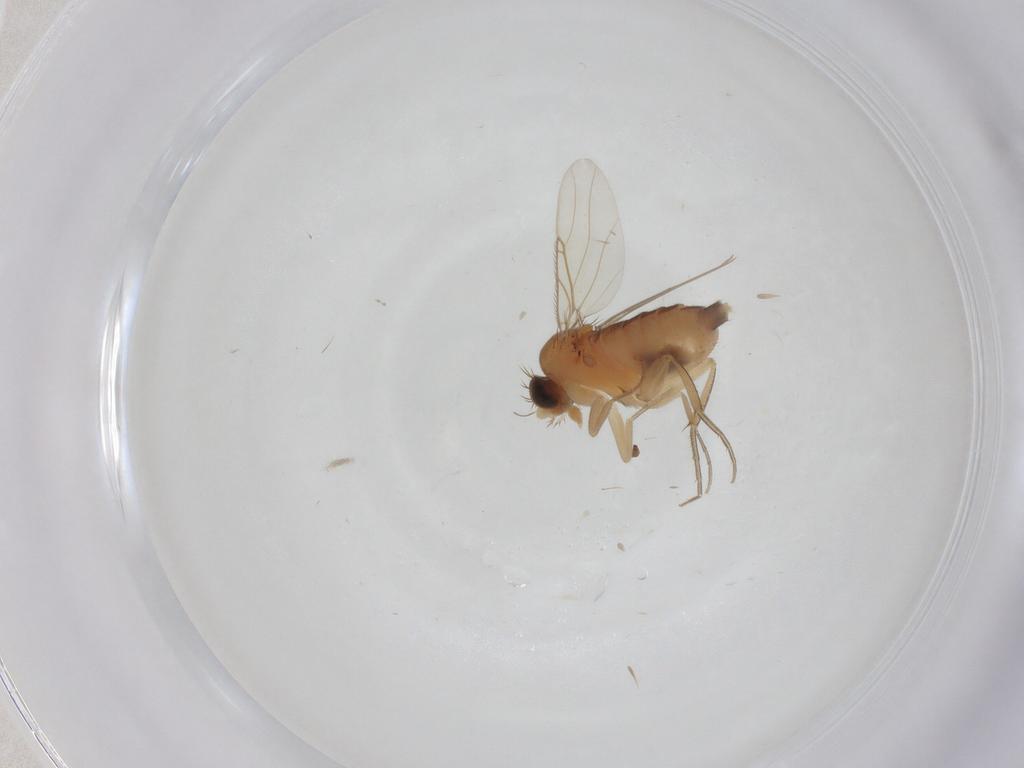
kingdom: Animalia
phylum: Arthropoda
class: Insecta
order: Diptera
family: Phoridae
